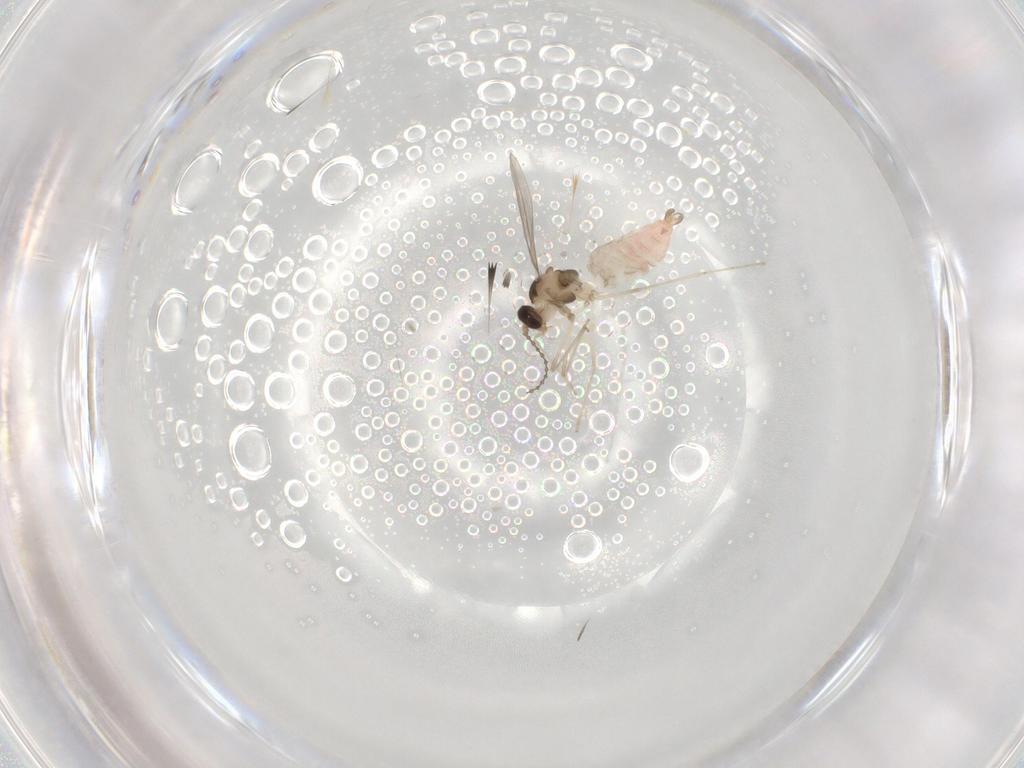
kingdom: Animalia
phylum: Arthropoda
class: Insecta
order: Diptera
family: Cecidomyiidae
